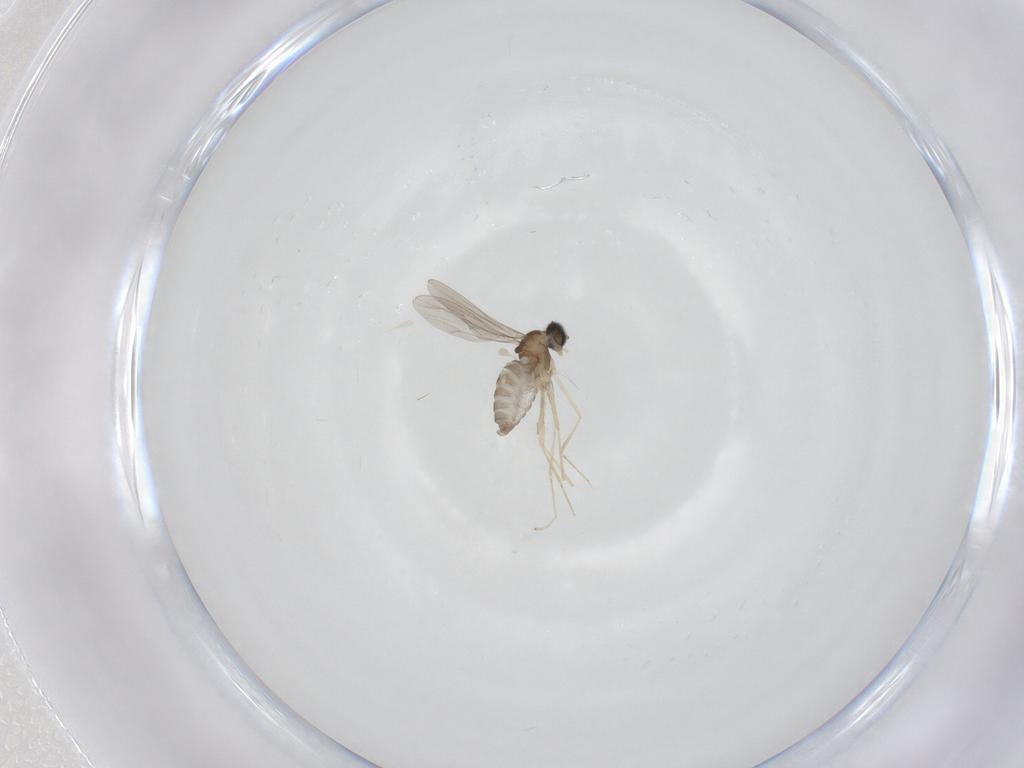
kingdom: Animalia
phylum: Arthropoda
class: Insecta
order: Diptera
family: Cecidomyiidae
